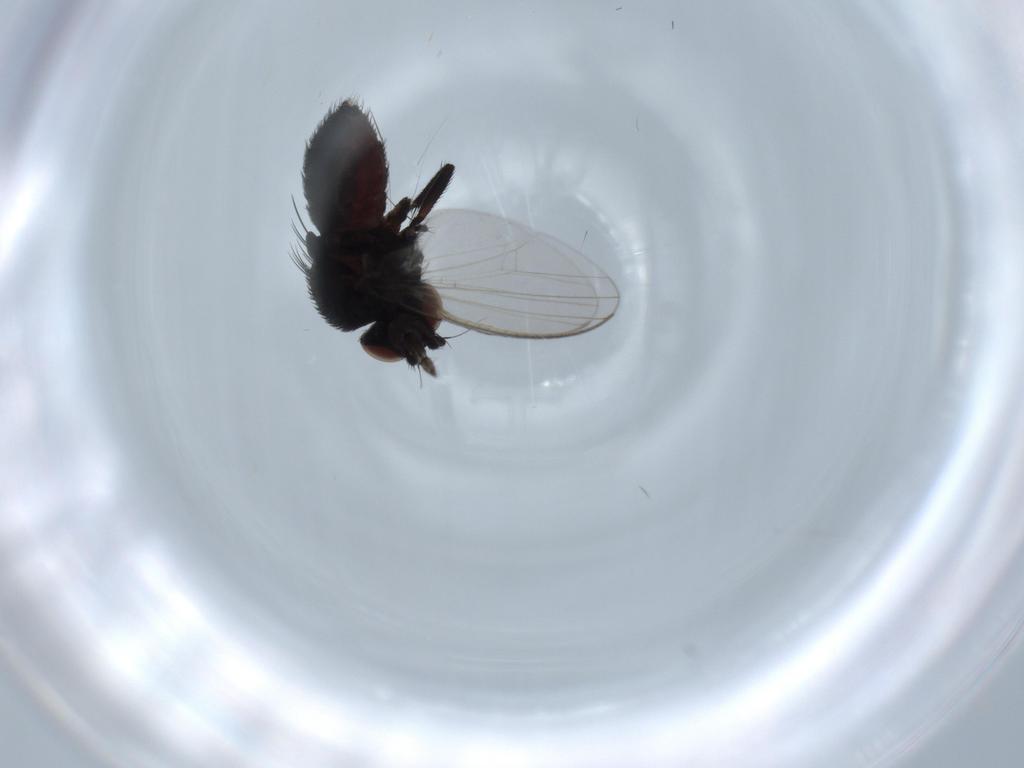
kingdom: Animalia
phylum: Arthropoda
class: Insecta
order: Diptera
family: Milichiidae
